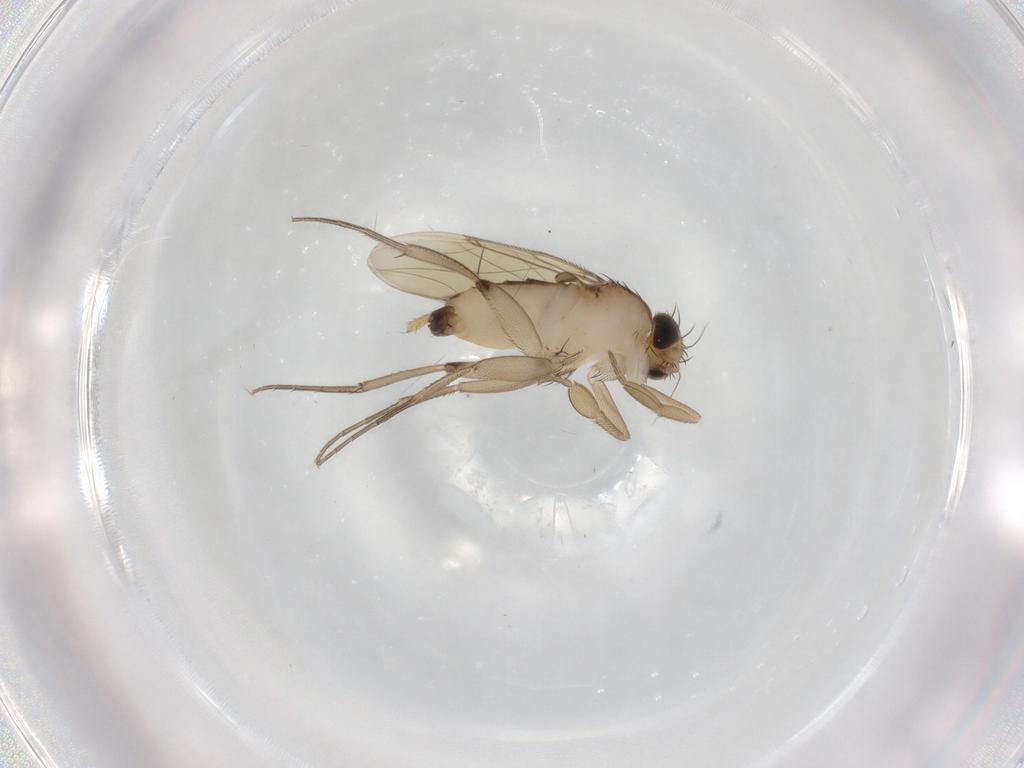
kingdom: Animalia
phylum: Arthropoda
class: Insecta
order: Diptera
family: Phoridae
